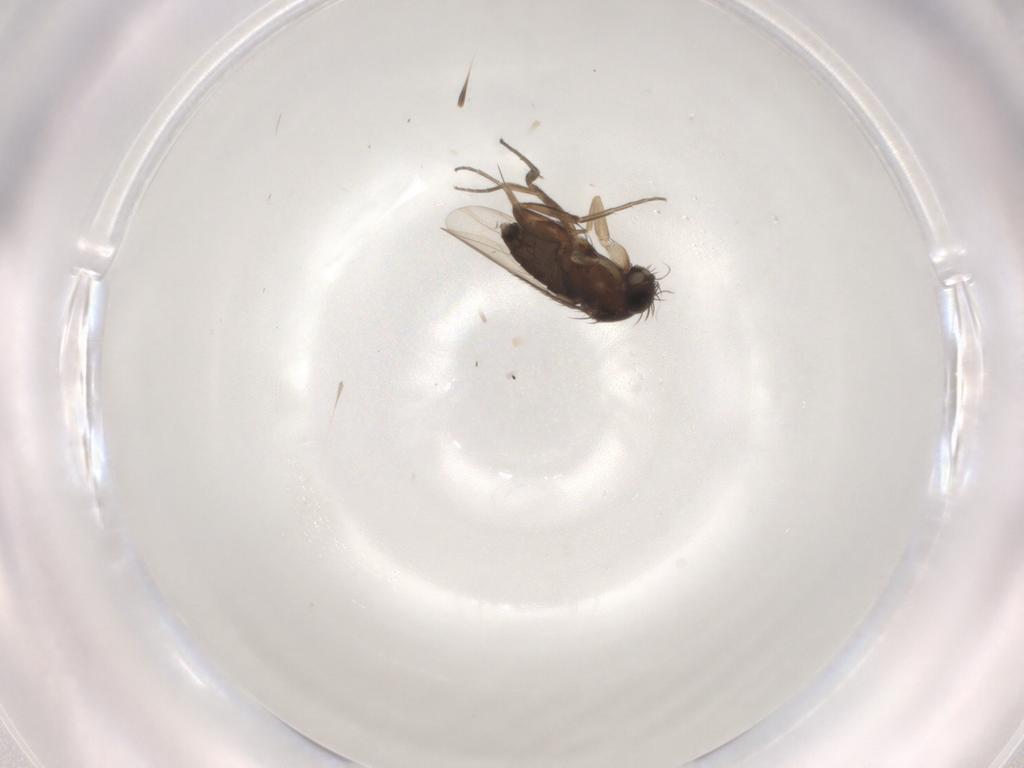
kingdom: Animalia
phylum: Arthropoda
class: Insecta
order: Diptera
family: Phoridae
